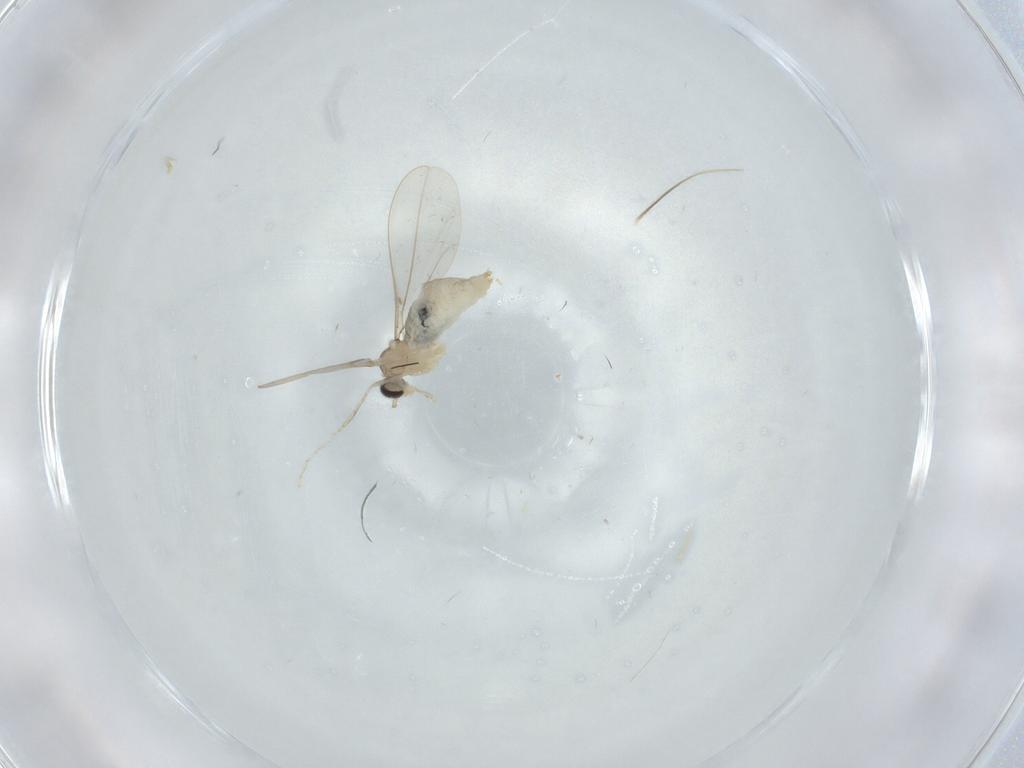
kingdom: Animalia
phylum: Arthropoda
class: Insecta
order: Diptera
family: Cecidomyiidae
